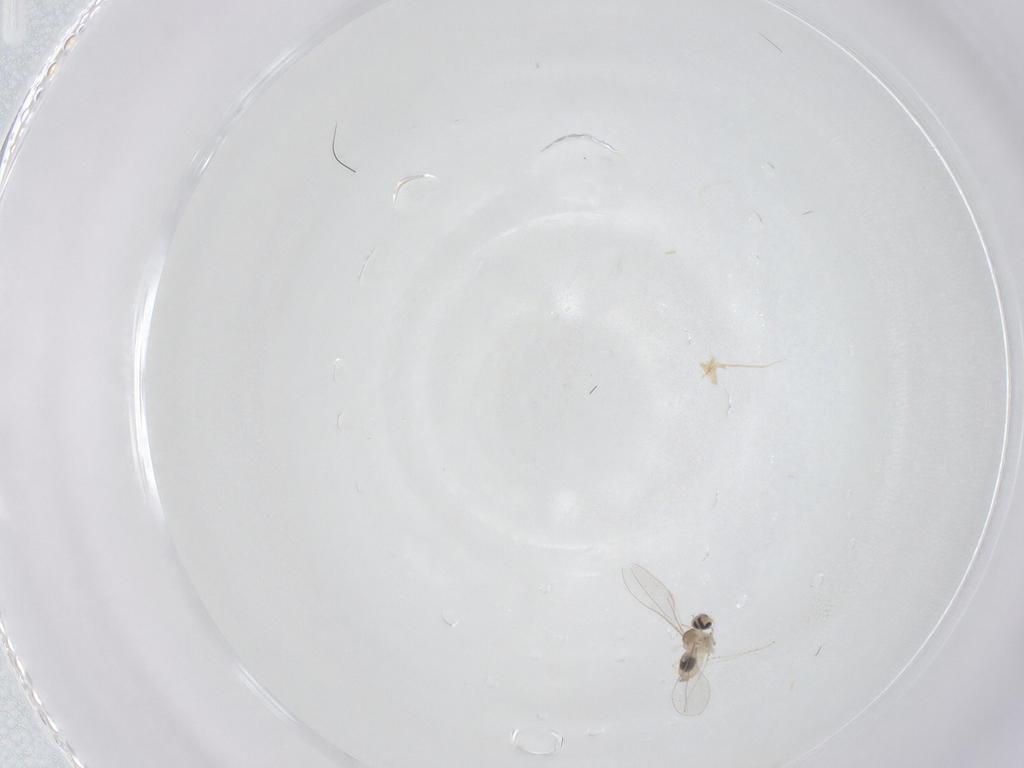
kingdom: Animalia
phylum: Arthropoda
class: Insecta
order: Diptera
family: Cecidomyiidae
